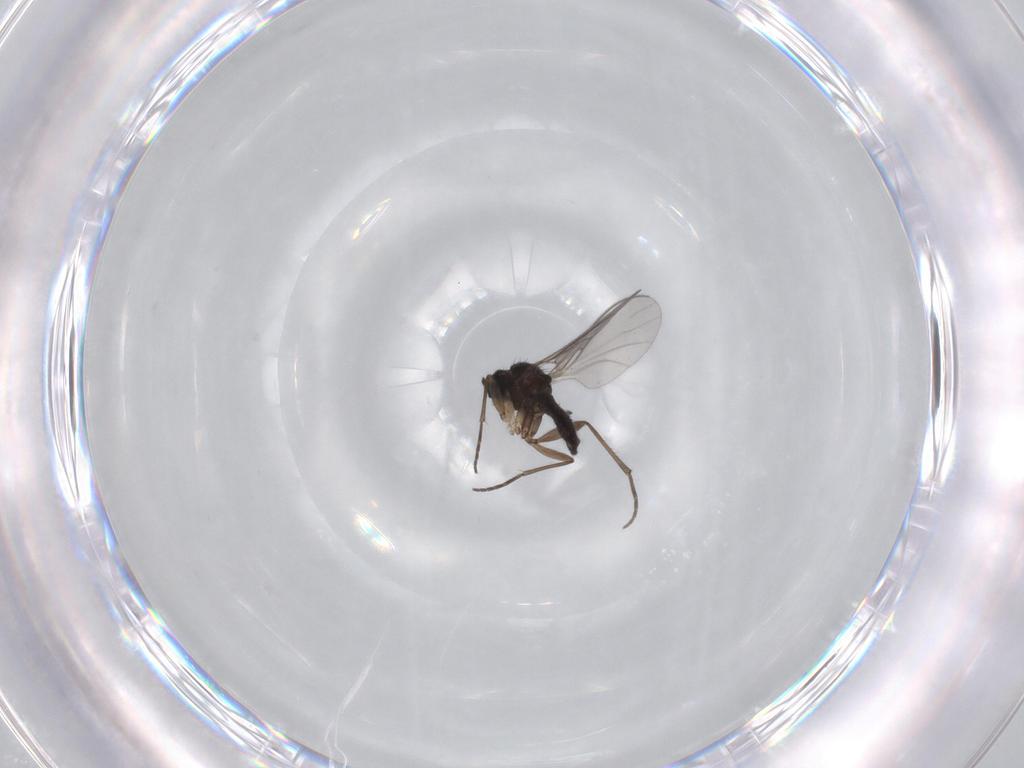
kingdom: Animalia
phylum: Arthropoda
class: Insecta
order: Diptera
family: Sciaridae
